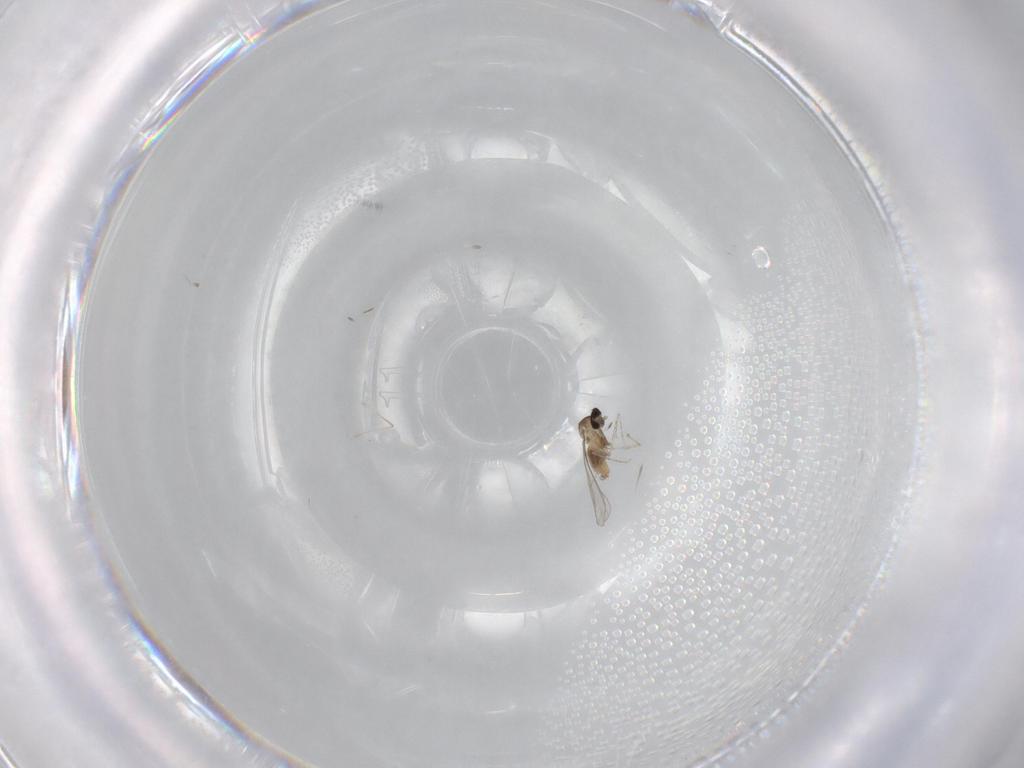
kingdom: Animalia
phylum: Arthropoda
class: Insecta
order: Diptera
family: Cecidomyiidae
